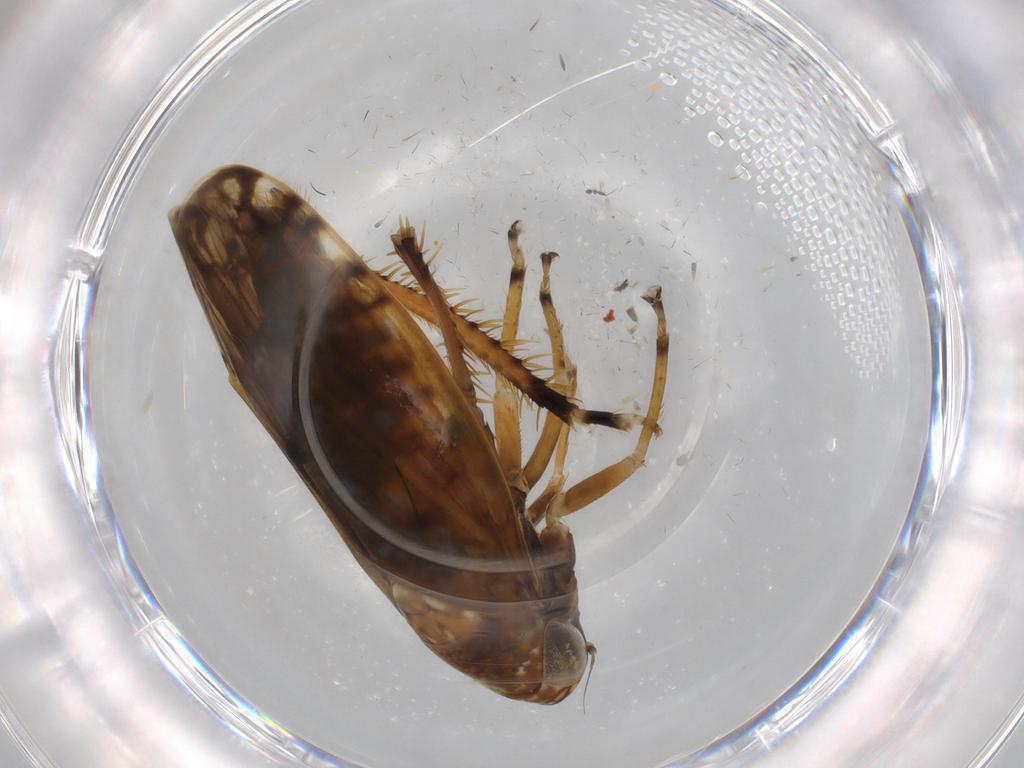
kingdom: Animalia
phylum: Arthropoda
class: Insecta
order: Hemiptera
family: Cicadellidae
